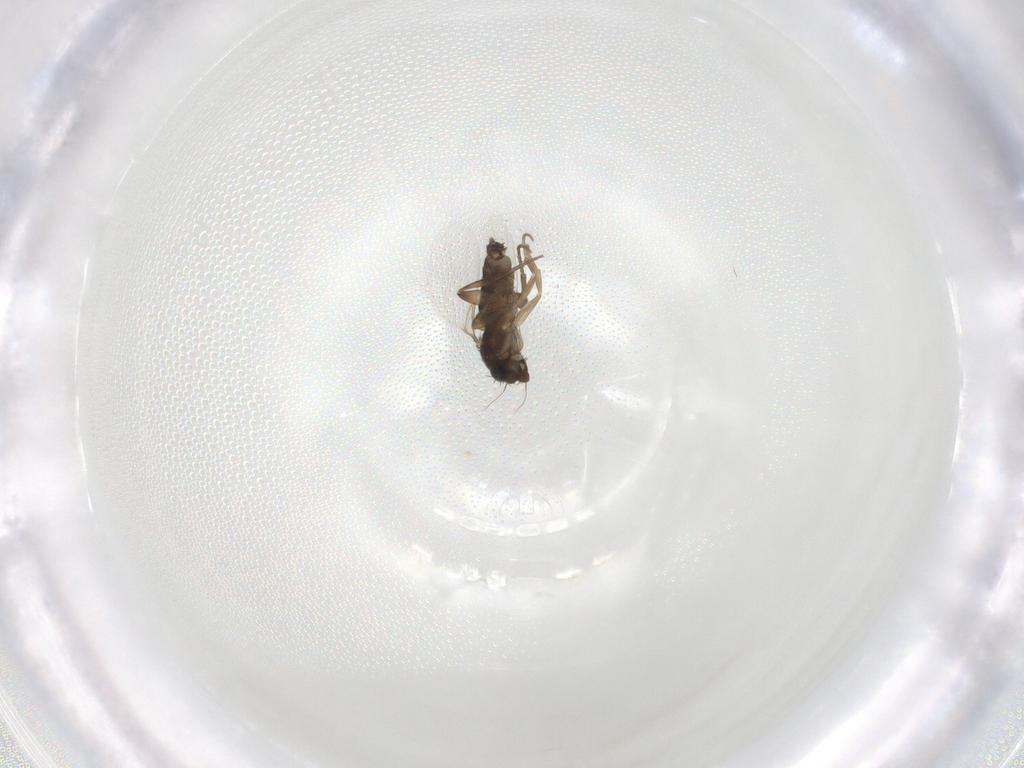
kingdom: Animalia
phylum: Arthropoda
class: Insecta
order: Diptera
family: Phoridae
